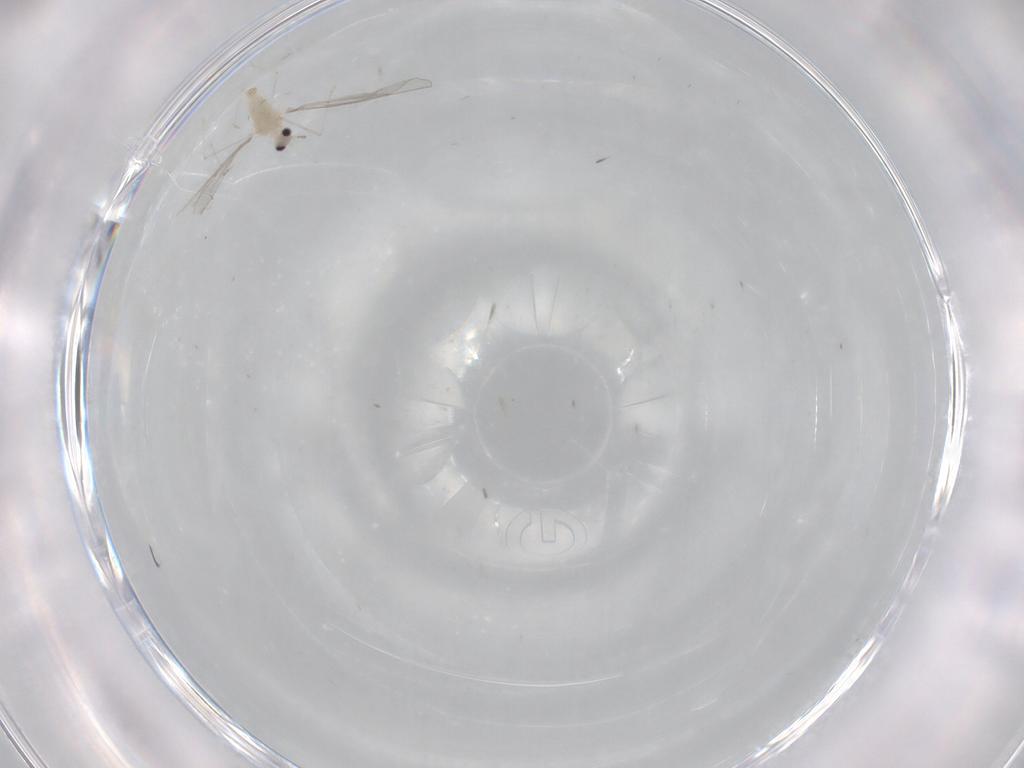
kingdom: Animalia
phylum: Arthropoda
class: Insecta
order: Diptera
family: Cecidomyiidae
